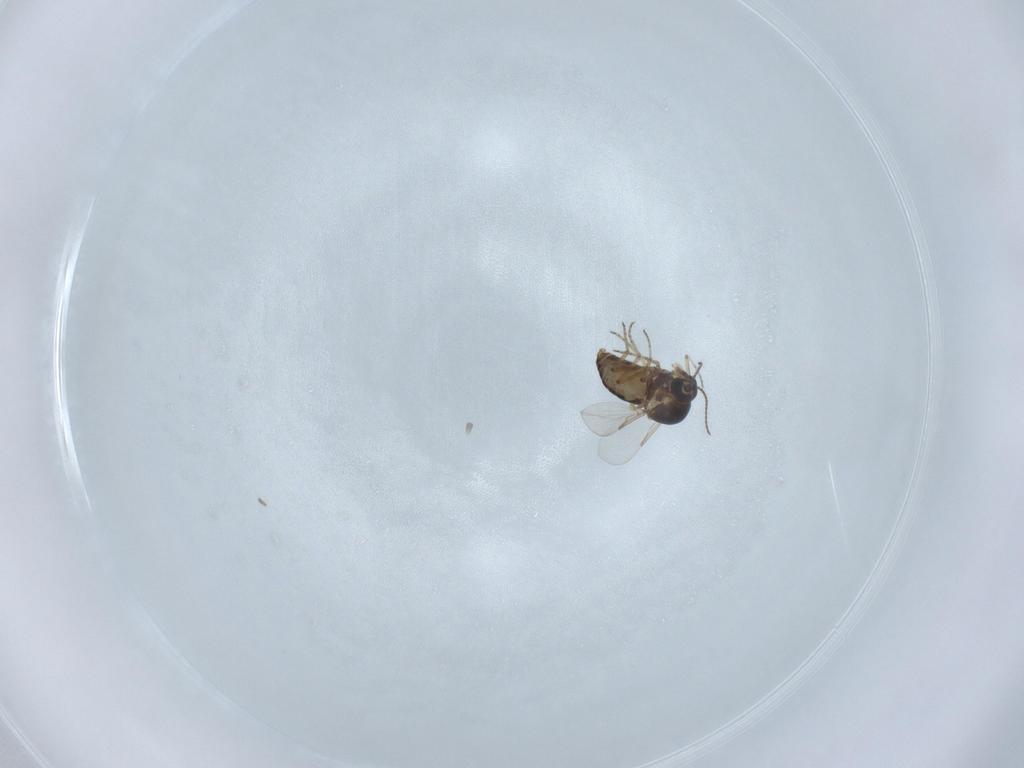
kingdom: Animalia
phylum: Arthropoda
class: Insecta
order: Diptera
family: Ceratopogonidae
